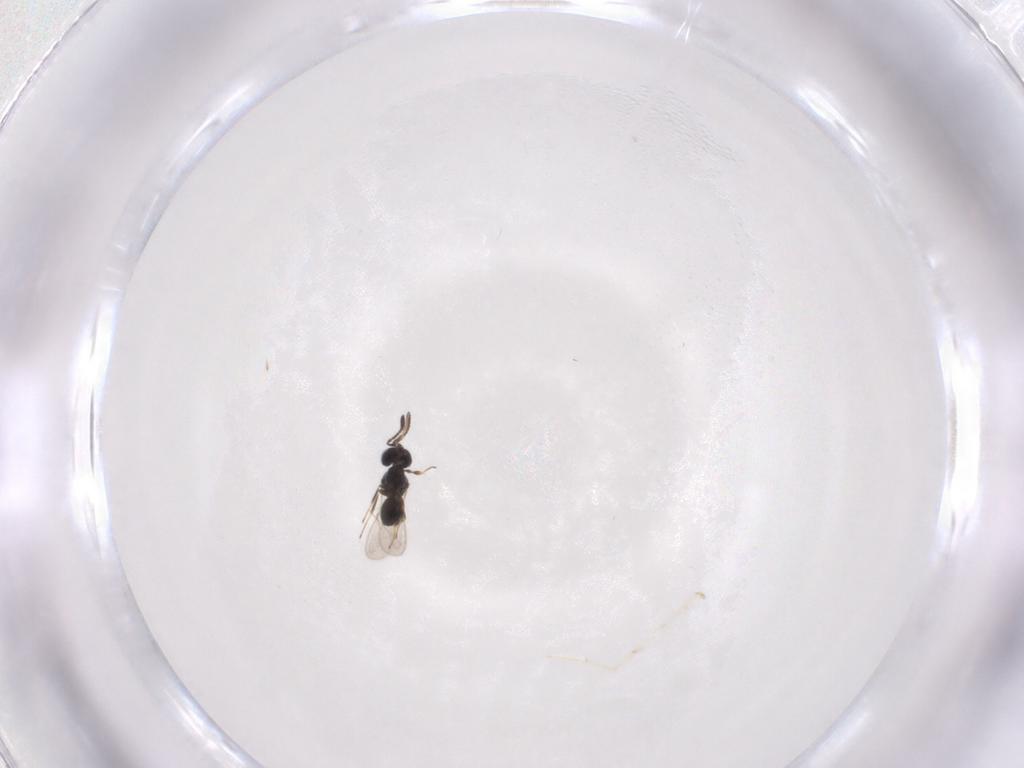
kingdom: Animalia
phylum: Arthropoda
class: Insecta
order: Hymenoptera
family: Scelionidae
